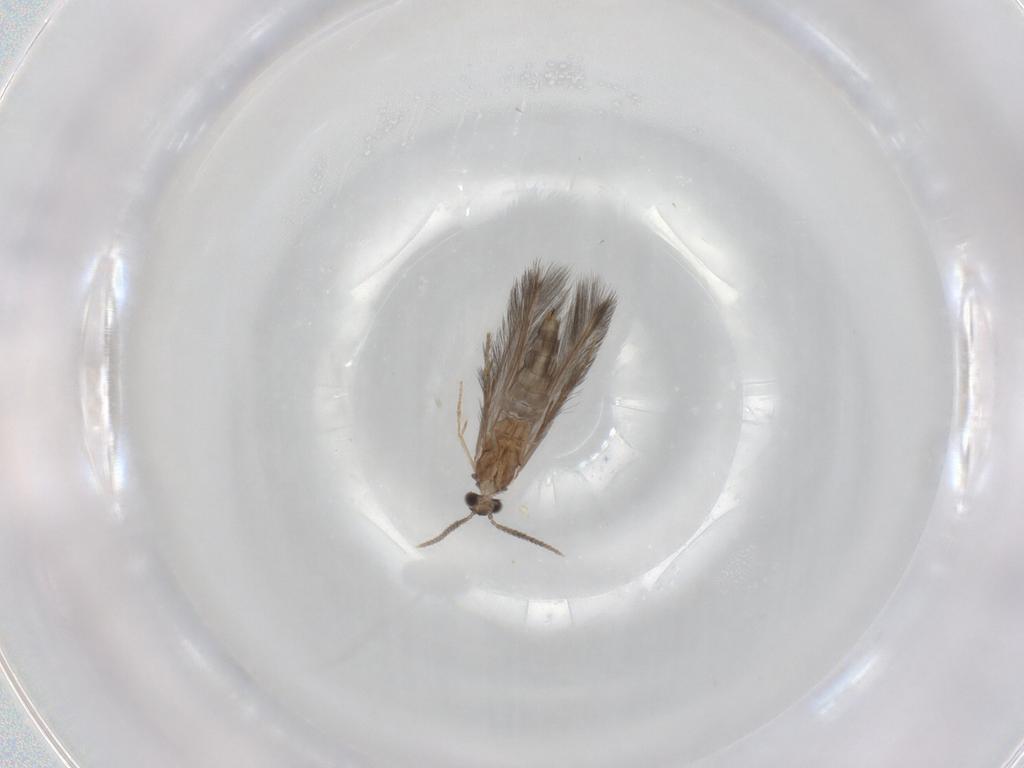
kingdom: Animalia
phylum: Arthropoda
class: Insecta
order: Trichoptera
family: Hydroptilidae
